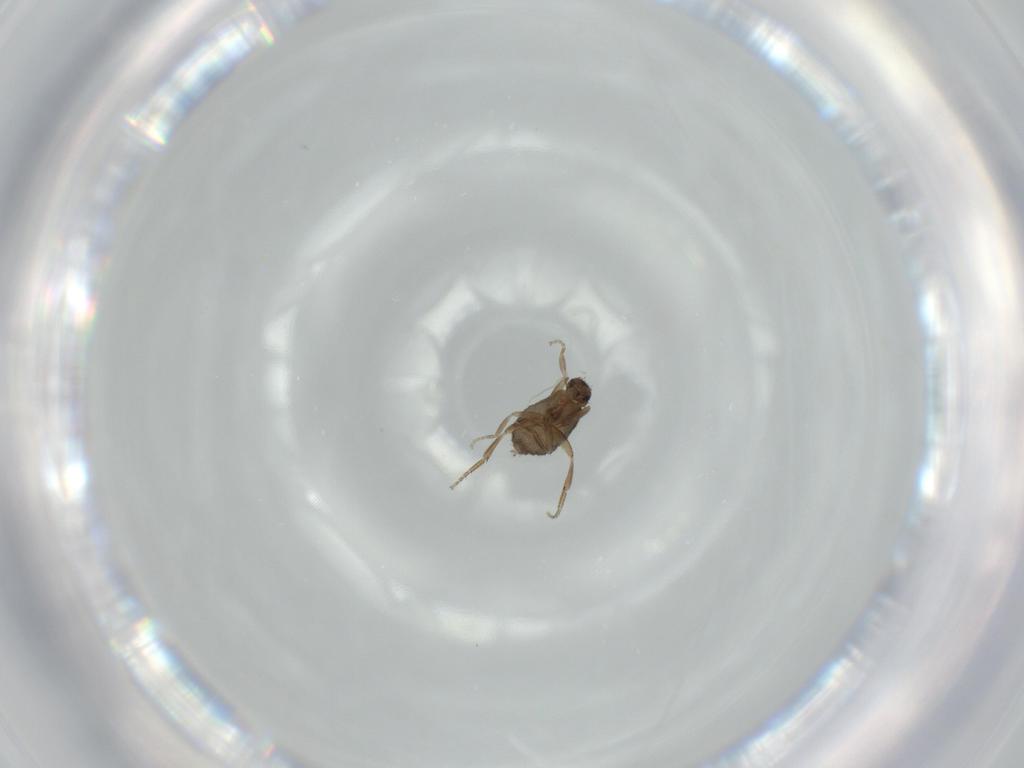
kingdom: Animalia
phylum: Arthropoda
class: Insecta
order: Diptera
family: Phoridae
